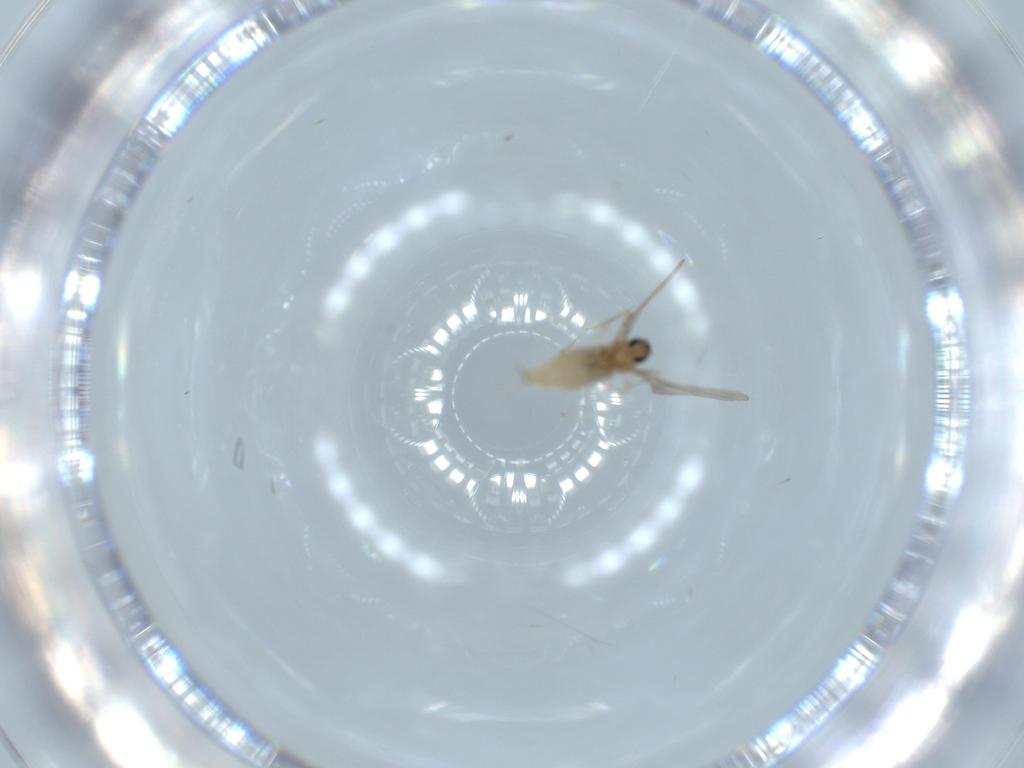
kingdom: Animalia
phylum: Arthropoda
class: Insecta
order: Diptera
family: Cecidomyiidae
